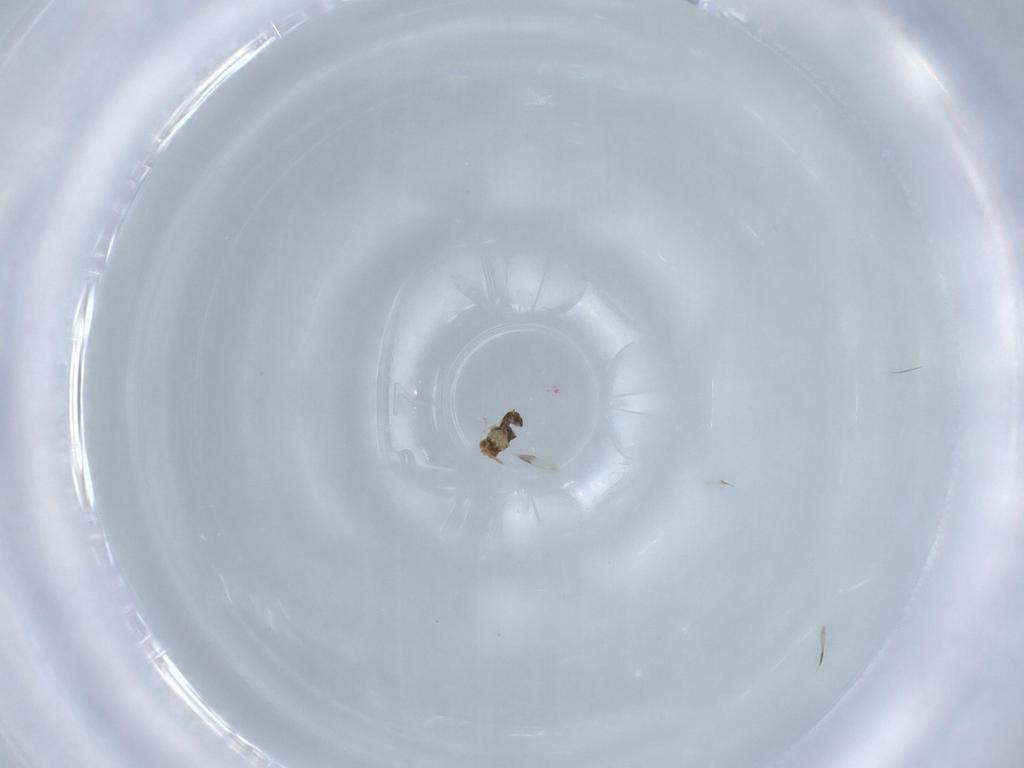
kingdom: Animalia
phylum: Arthropoda
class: Insecta
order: Hymenoptera
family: Aphelinidae
